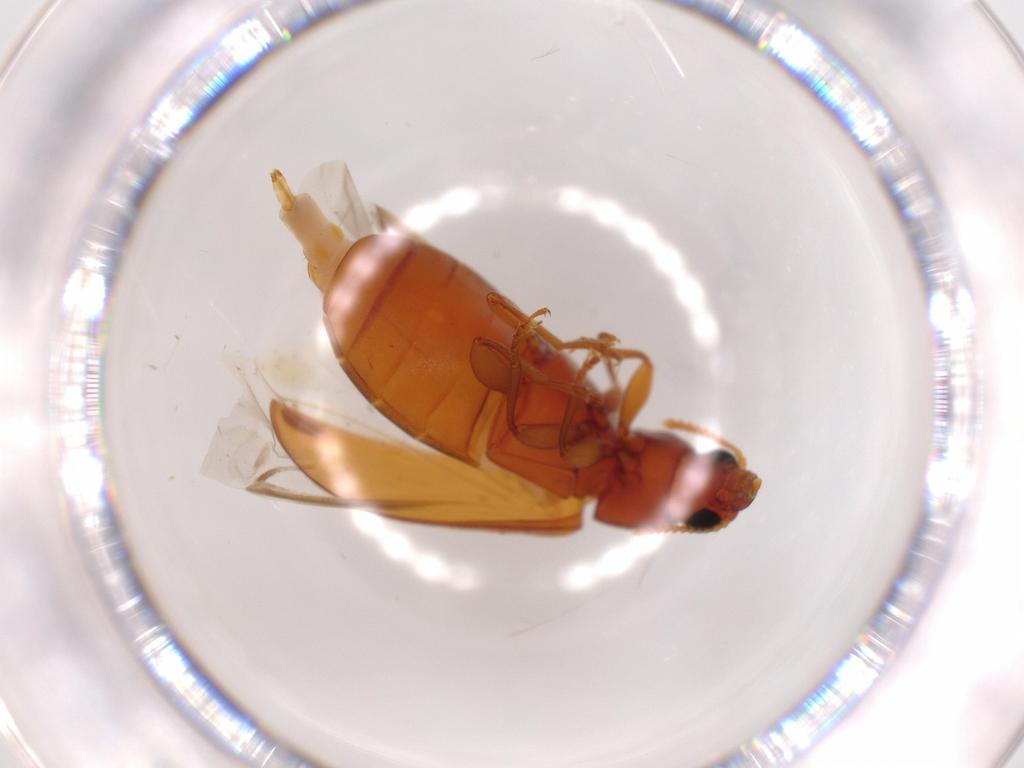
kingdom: Animalia
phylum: Arthropoda
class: Insecta
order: Coleoptera
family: Mycteridae
